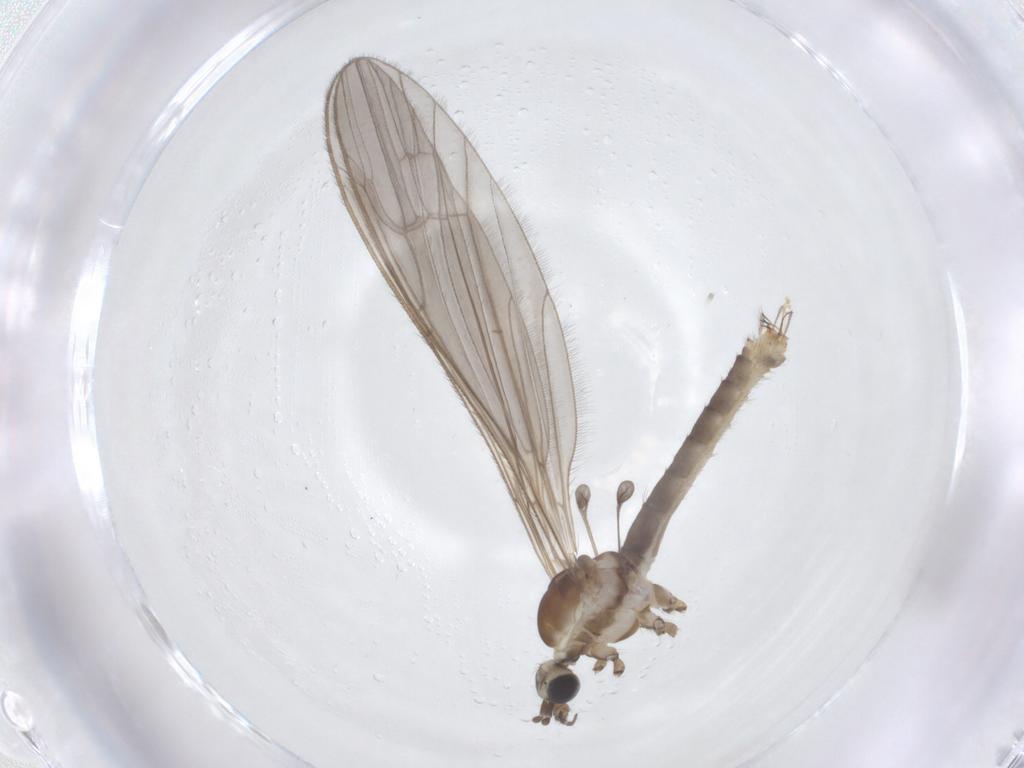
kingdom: Animalia
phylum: Arthropoda
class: Insecta
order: Diptera
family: Limoniidae
